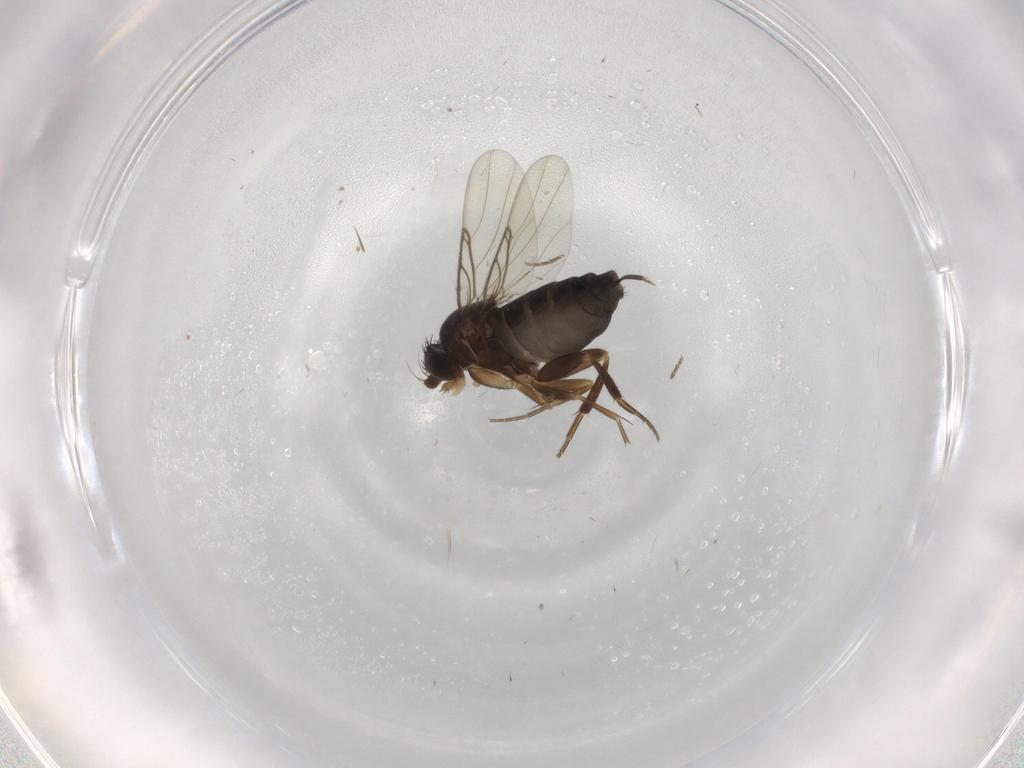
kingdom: Animalia
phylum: Arthropoda
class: Insecta
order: Diptera
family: Phoridae
